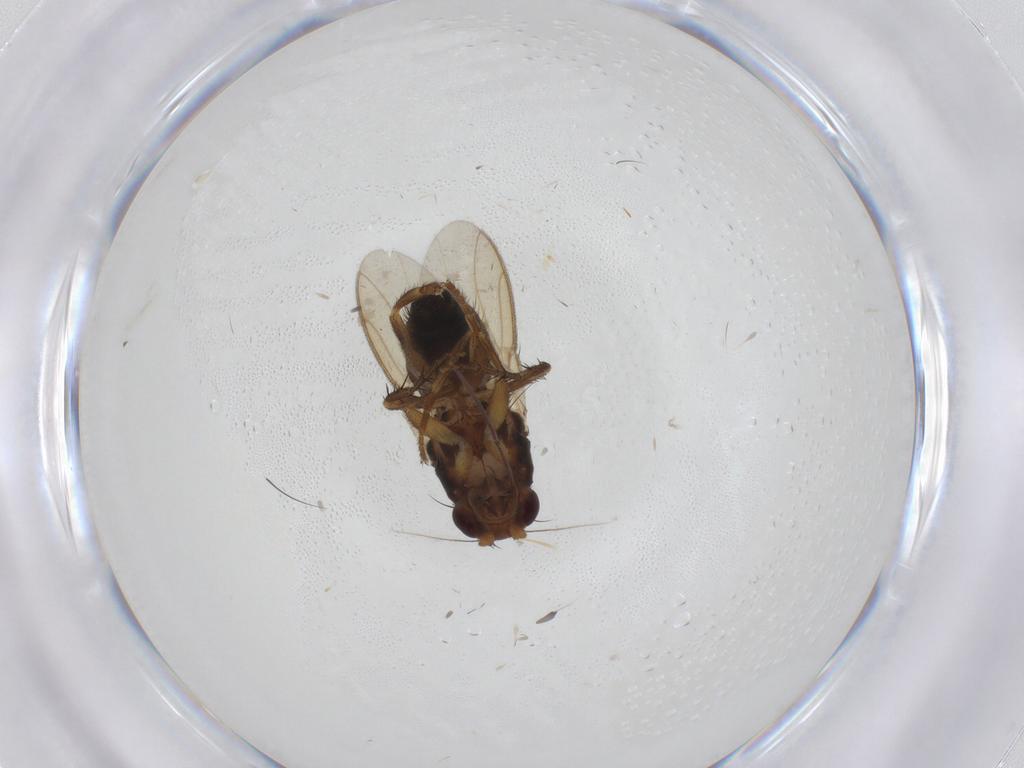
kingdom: Animalia
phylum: Arthropoda
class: Insecta
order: Diptera
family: Sphaeroceridae
